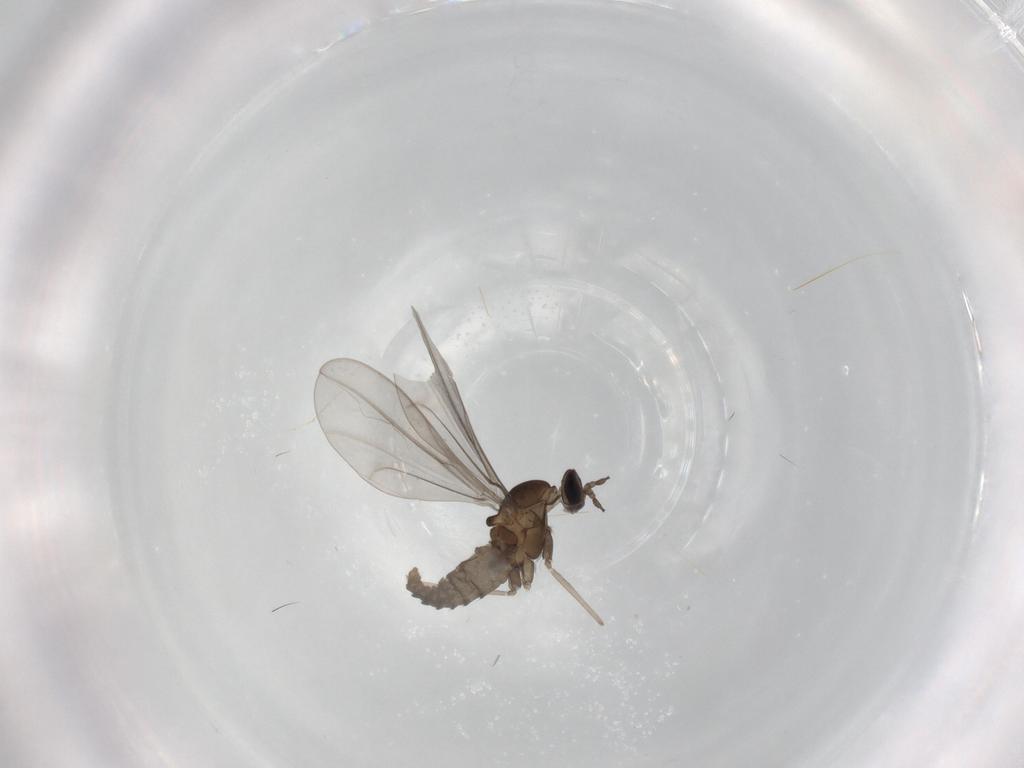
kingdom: Animalia
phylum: Arthropoda
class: Insecta
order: Diptera
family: Cecidomyiidae
